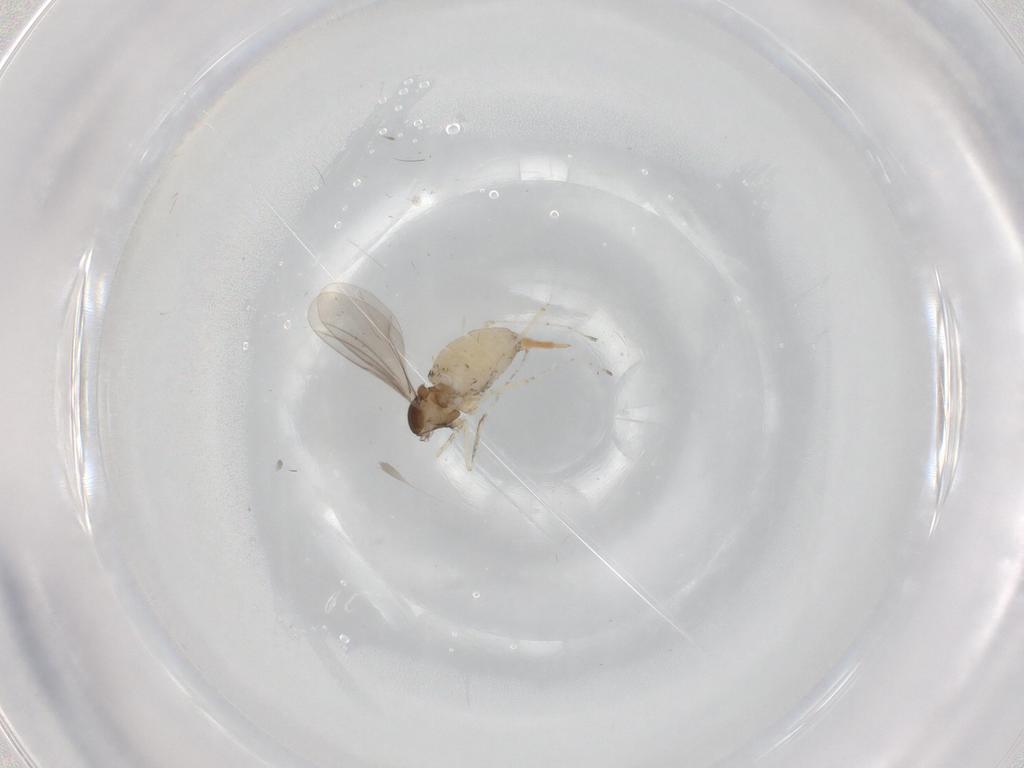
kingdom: Animalia
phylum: Arthropoda
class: Insecta
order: Diptera
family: Cecidomyiidae
